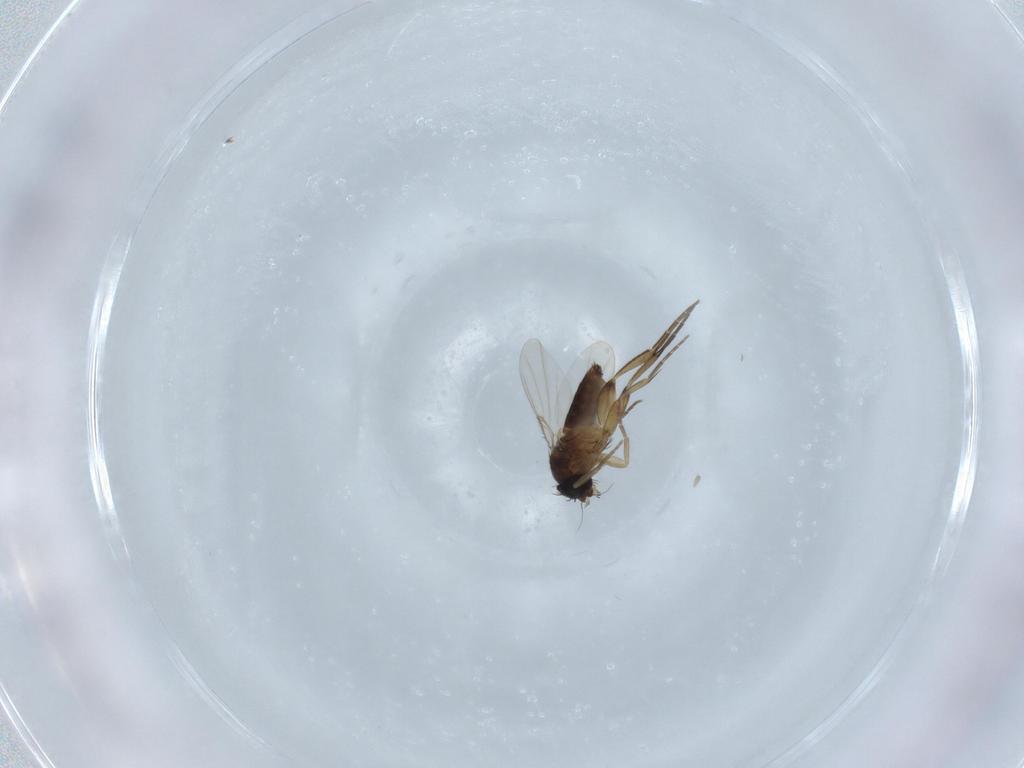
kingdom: Animalia
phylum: Arthropoda
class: Insecta
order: Diptera
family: Phoridae
